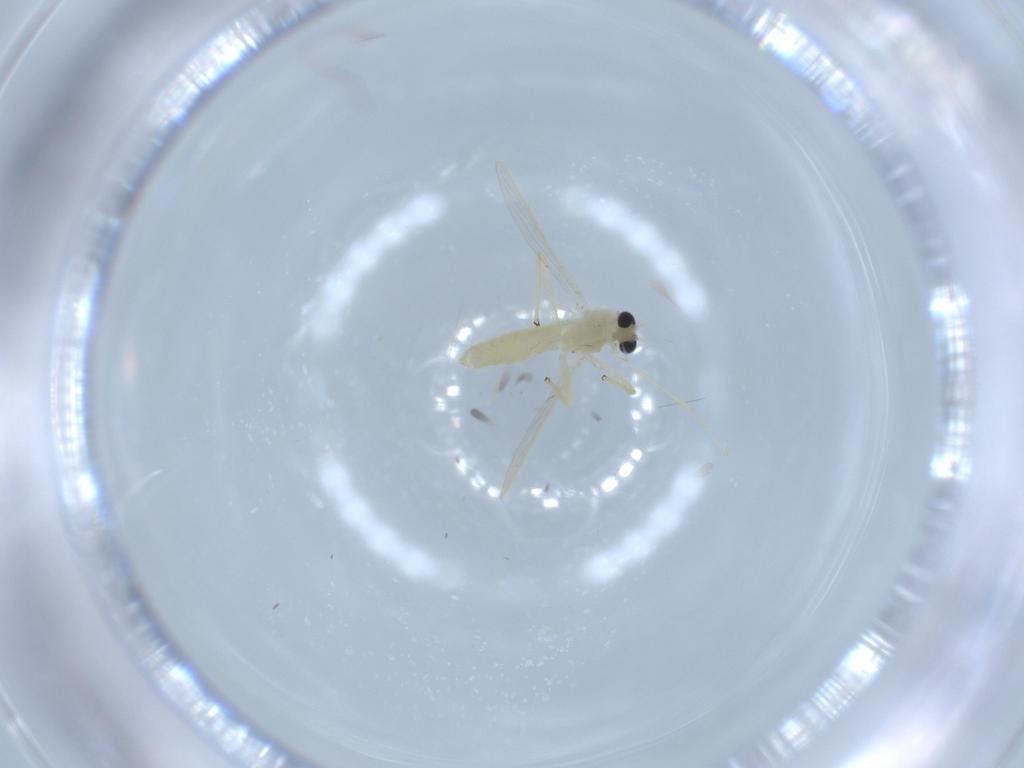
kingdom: Animalia
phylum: Arthropoda
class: Insecta
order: Diptera
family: Chironomidae
